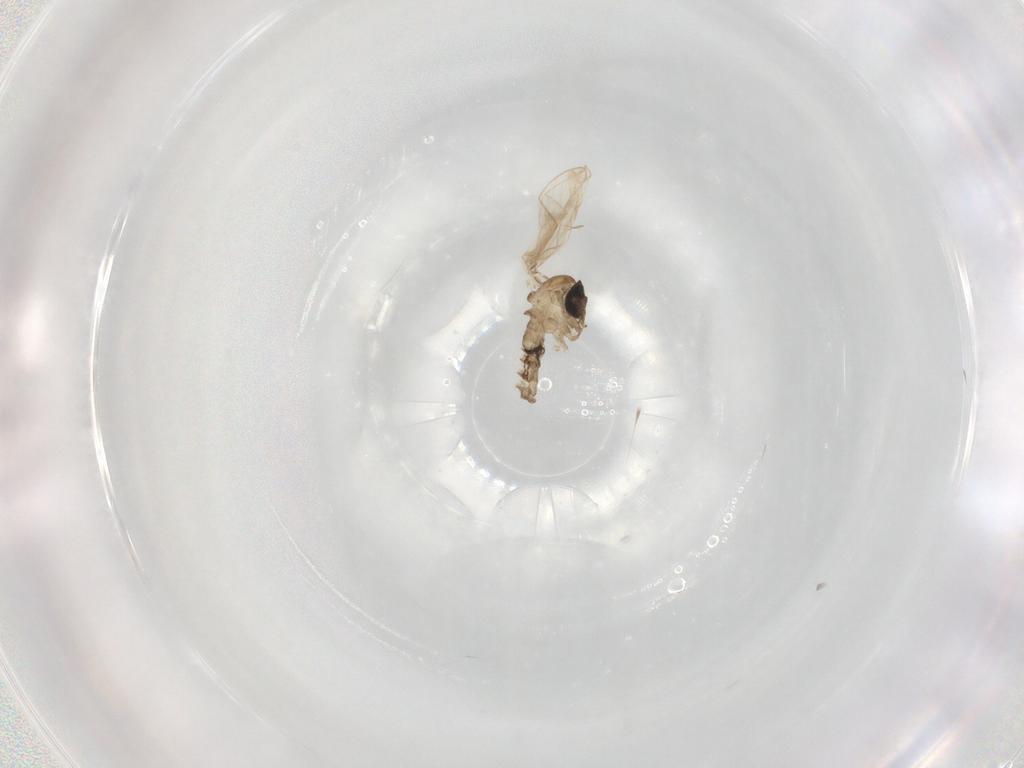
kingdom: Animalia
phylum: Arthropoda
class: Insecta
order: Diptera
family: Psychodidae
